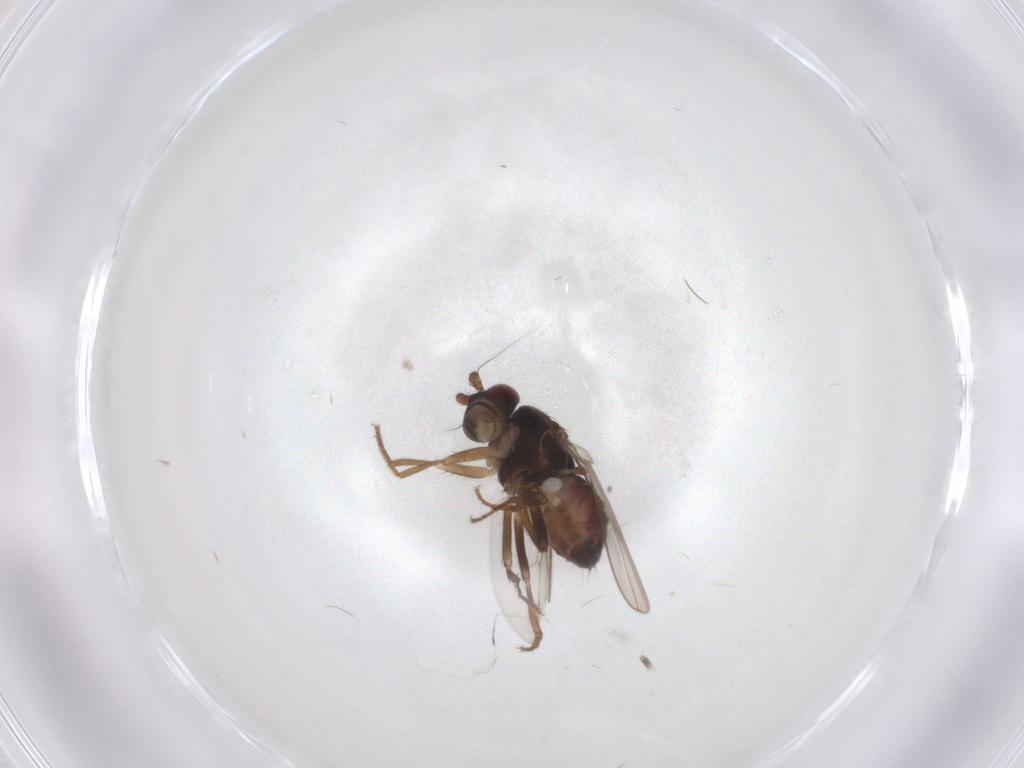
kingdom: Animalia
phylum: Arthropoda
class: Insecta
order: Diptera
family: Sphaeroceridae
